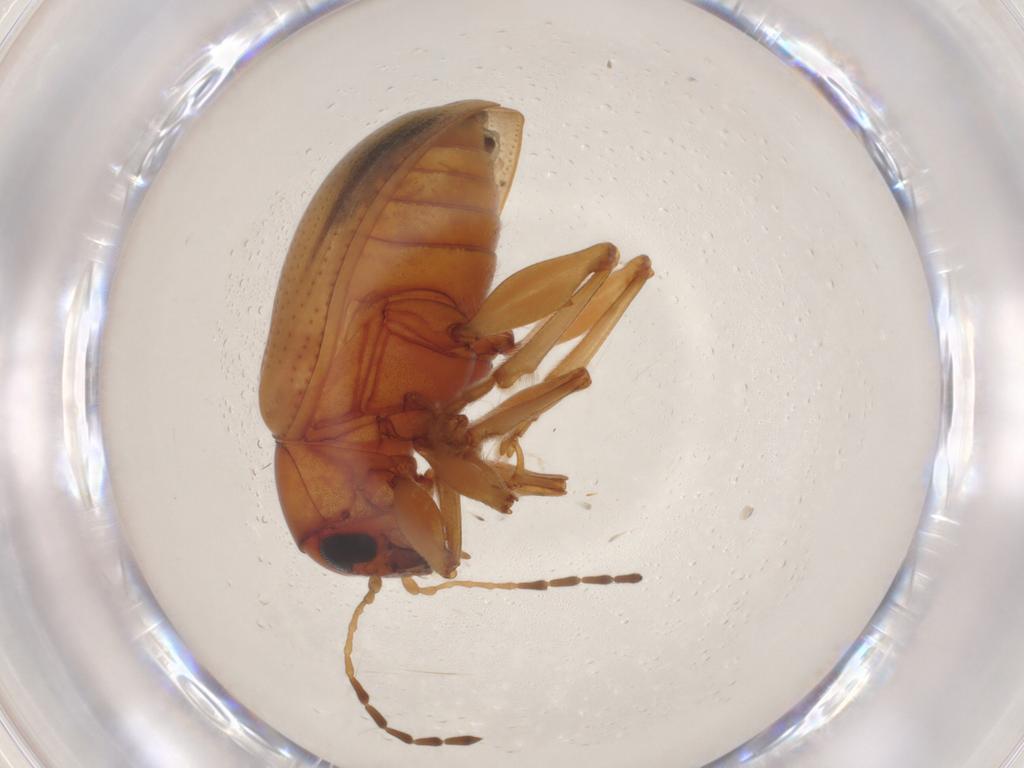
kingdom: Animalia
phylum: Arthropoda
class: Insecta
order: Coleoptera
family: Chrysomelidae
